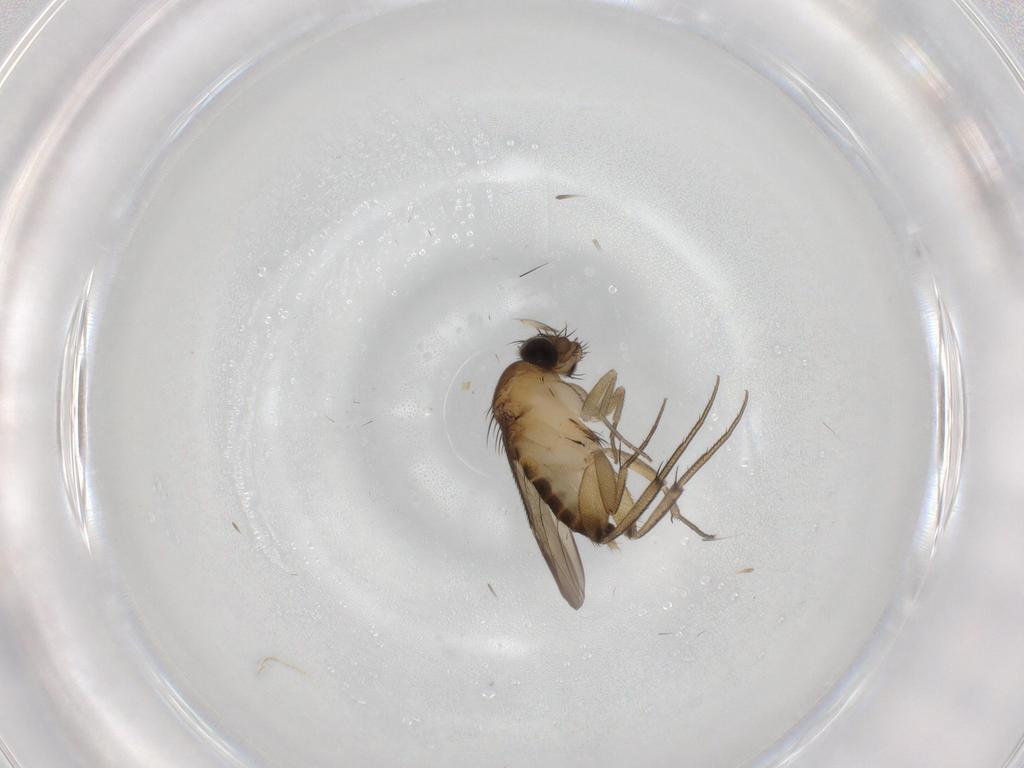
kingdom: Animalia
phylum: Arthropoda
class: Insecta
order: Diptera
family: Phoridae
